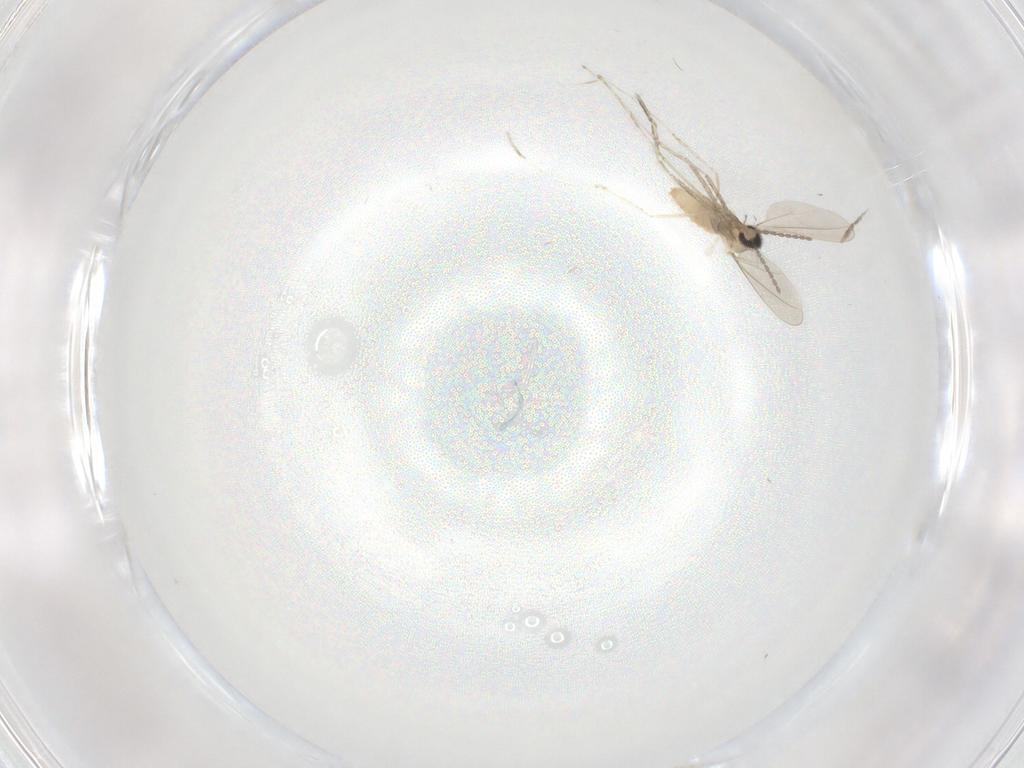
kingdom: Animalia
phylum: Arthropoda
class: Insecta
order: Diptera
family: Cecidomyiidae
